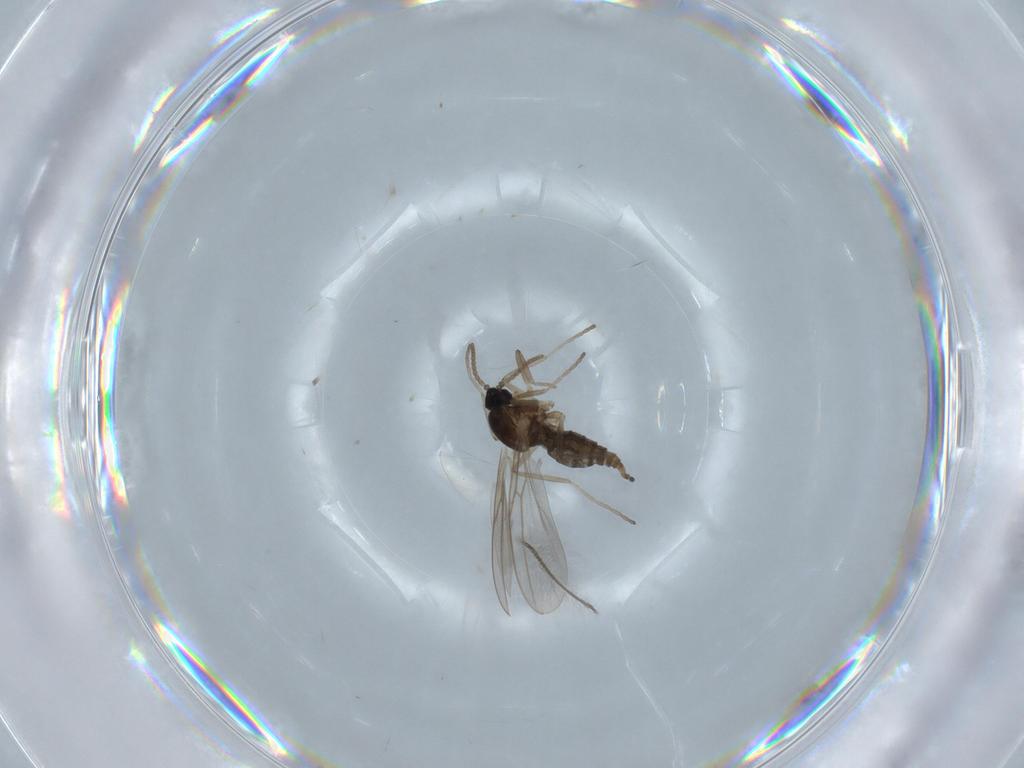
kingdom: Animalia
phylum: Arthropoda
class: Insecta
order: Diptera
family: Cecidomyiidae
